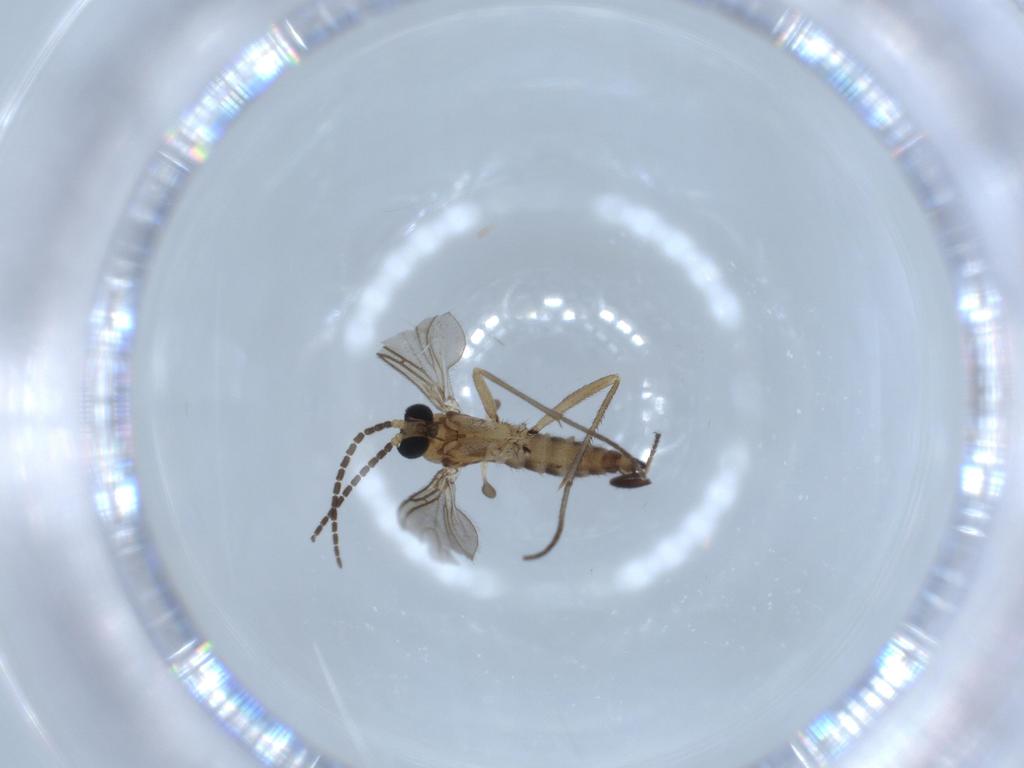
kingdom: Animalia
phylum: Arthropoda
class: Insecta
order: Diptera
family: Sciaridae
